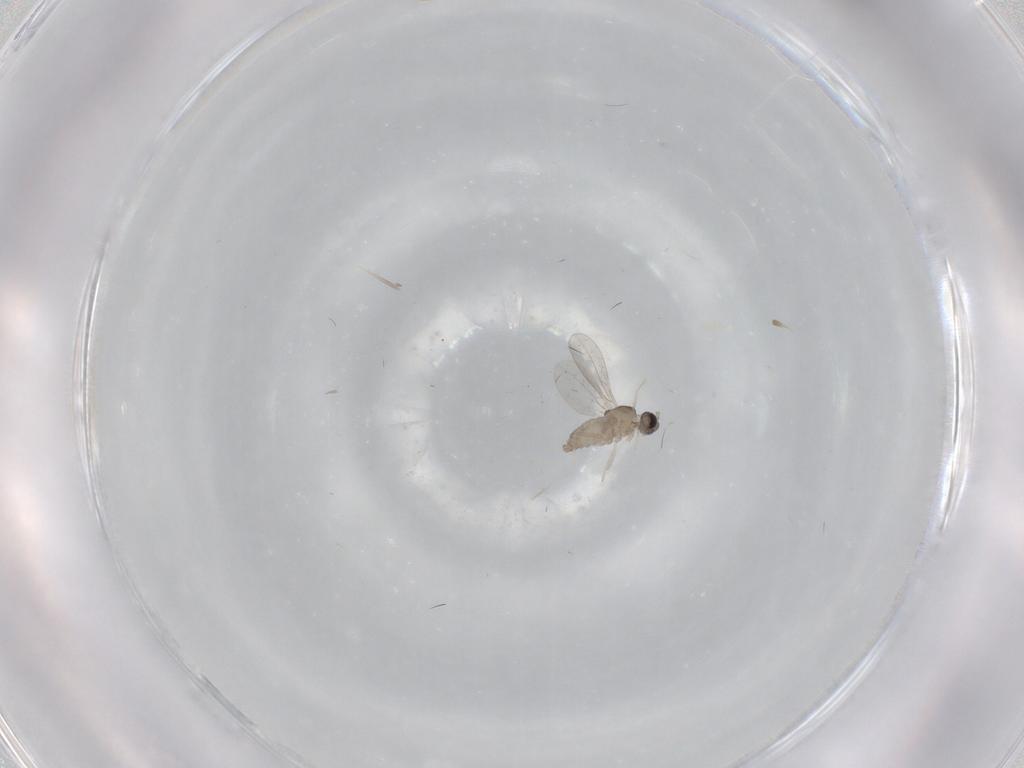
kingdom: Animalia
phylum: Arthropoda
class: Insecta
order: Diptera
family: Cecidomyiidae
